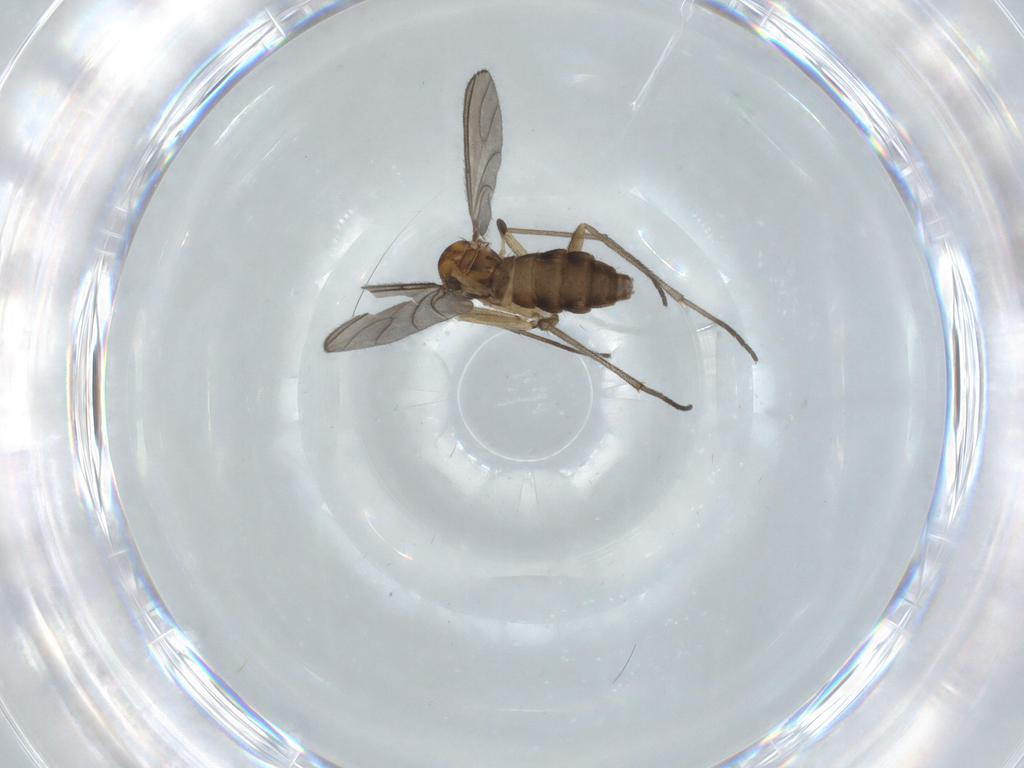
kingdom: Animalia
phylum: Arthropoda
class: Insecta
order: Diptera
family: Sciaridae
